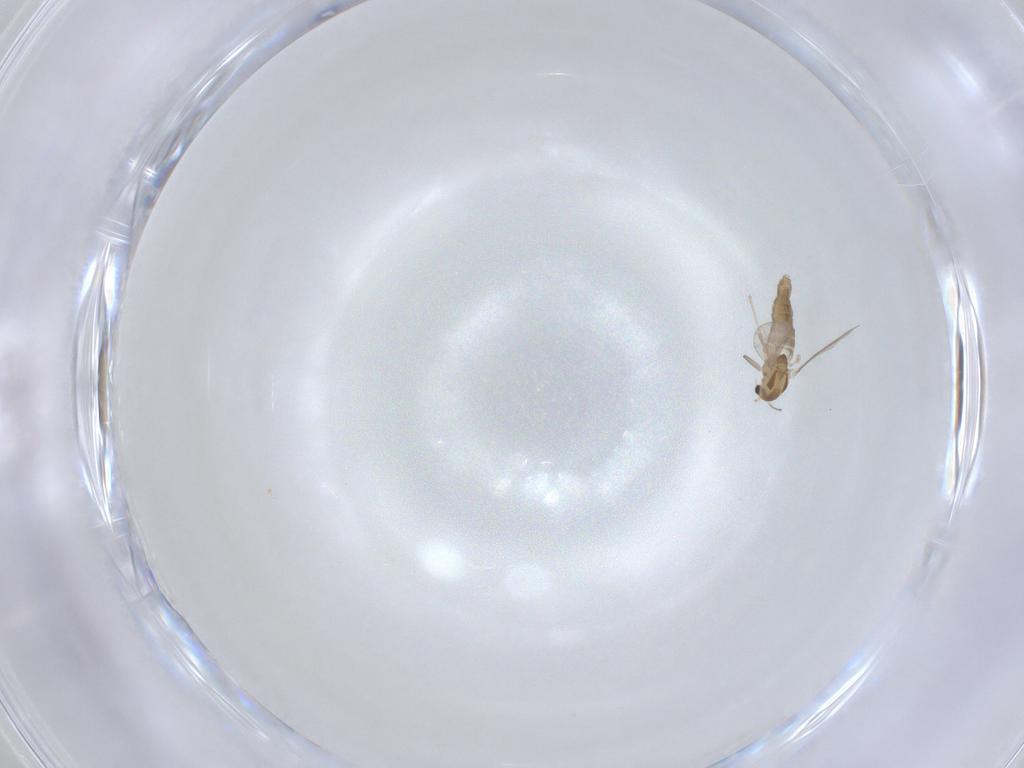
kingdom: Animalia
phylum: Arthropoda
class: Insecta
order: Diptera
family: Chironomidae
